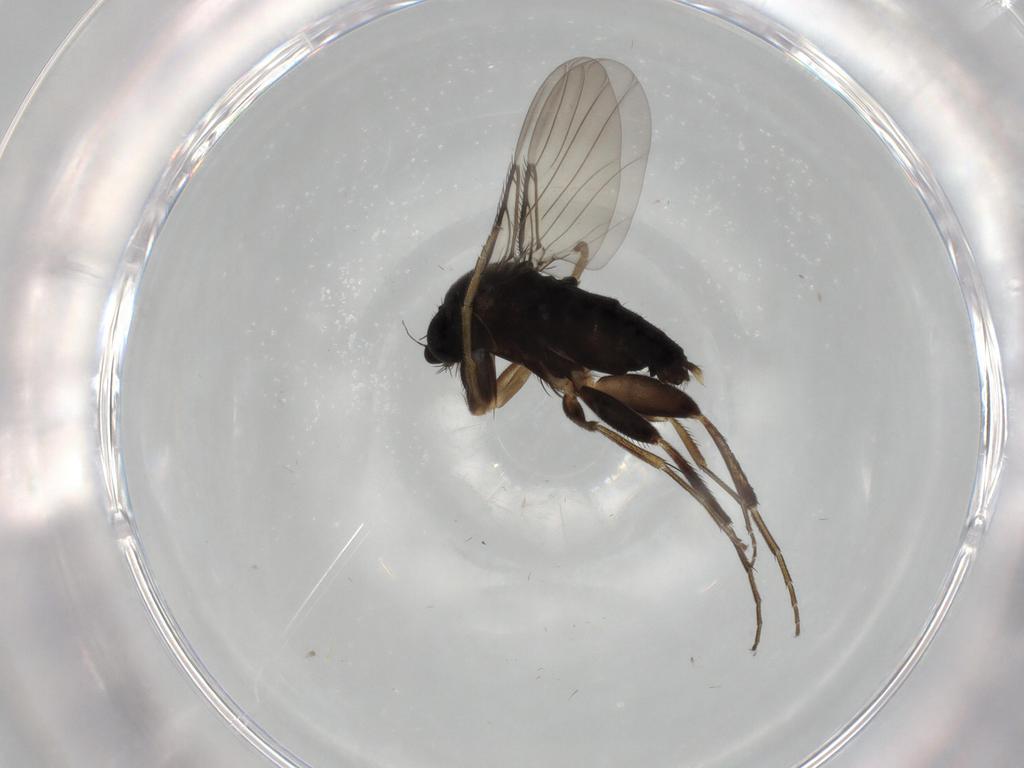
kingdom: Animalia
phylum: Arthropoda
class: Insecta
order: Diptera
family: Phoridae
